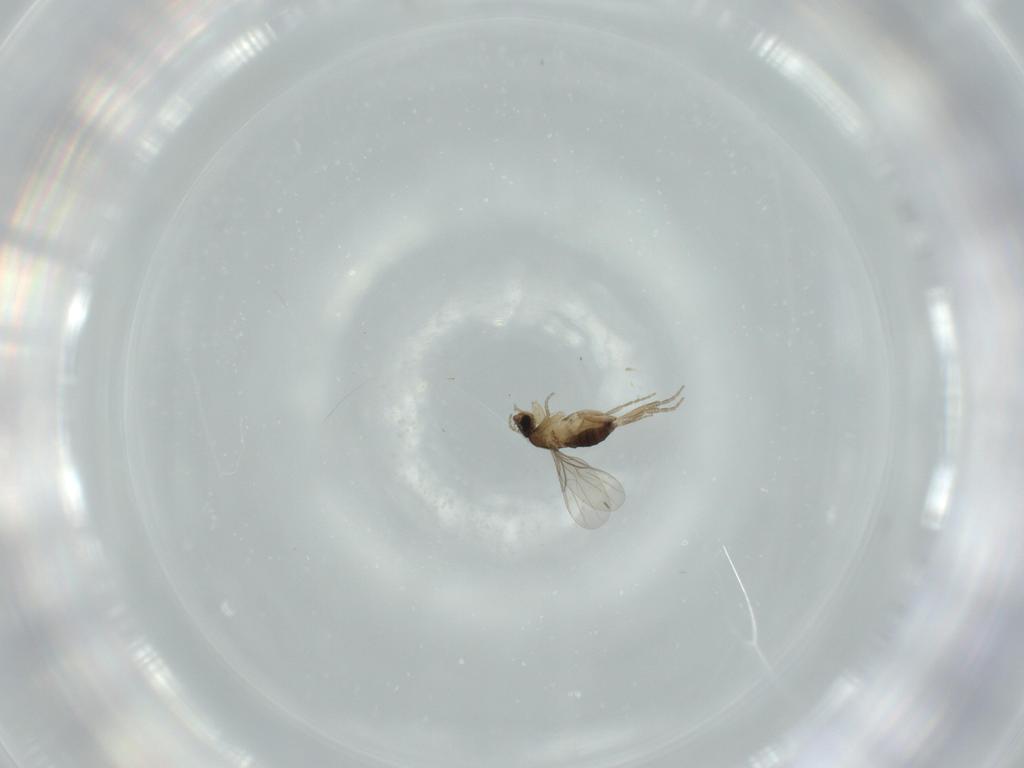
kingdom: Animalia
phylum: Arthropoda
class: Insecta
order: Diptera
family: Phoridae
